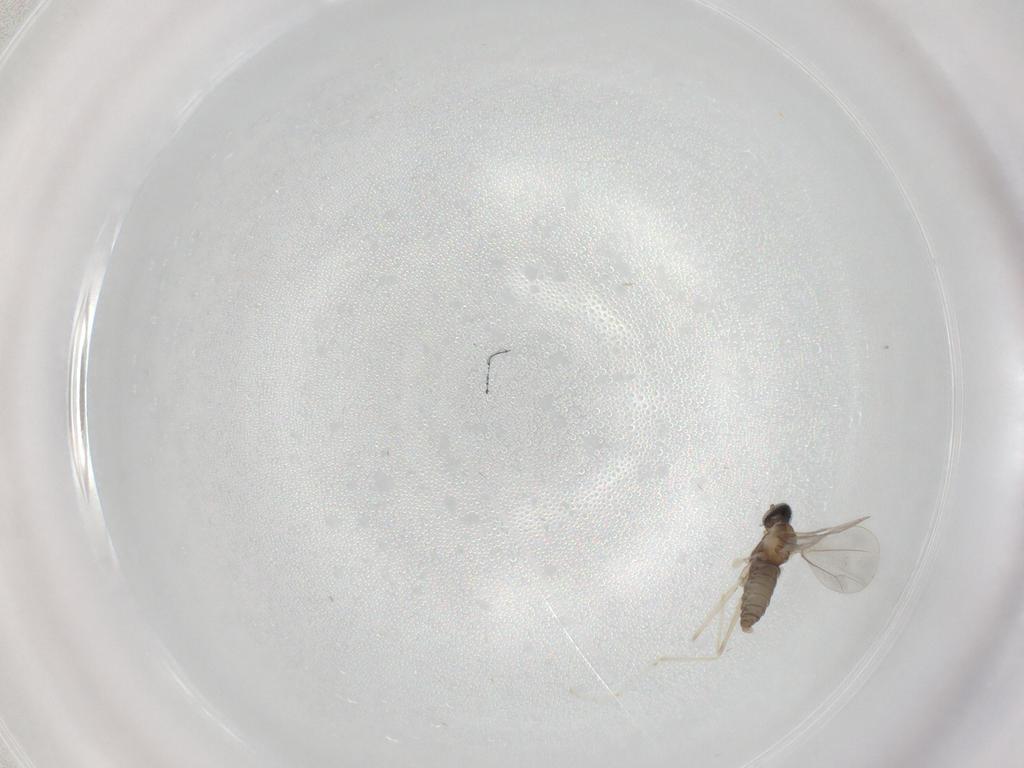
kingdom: Animalia
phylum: Arthropoda
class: Insecta
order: Diptera
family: Cecidomyiidae
